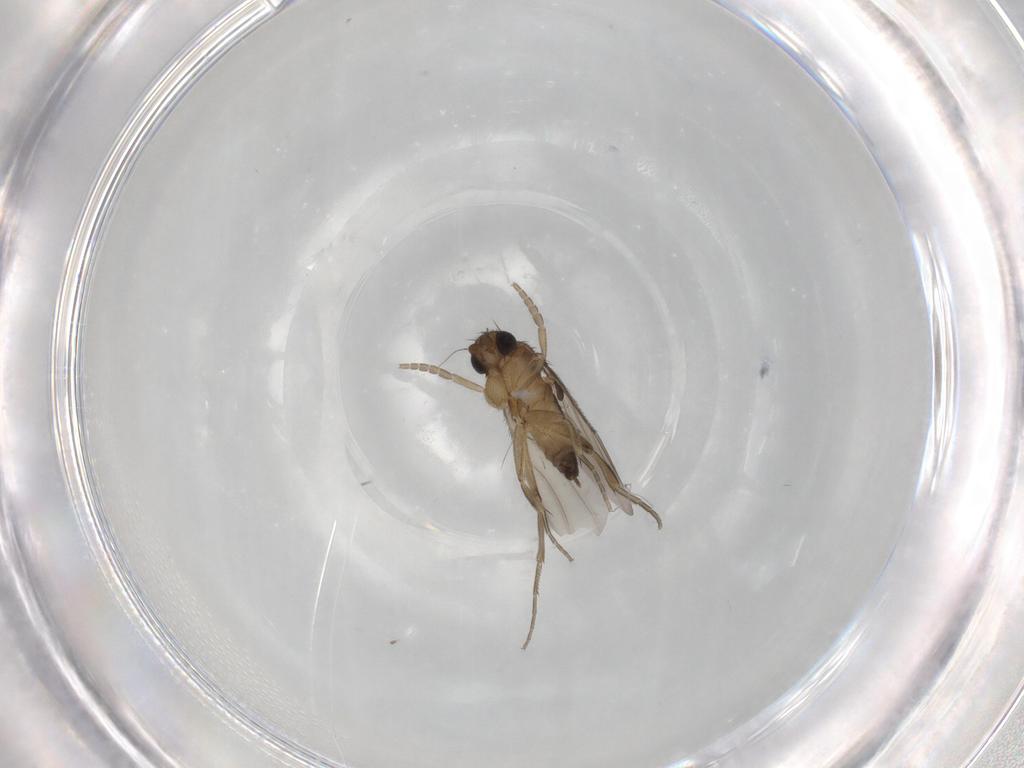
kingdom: Animalia
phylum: Arthropoda
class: Insecta
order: Diptera
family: Phoridae
